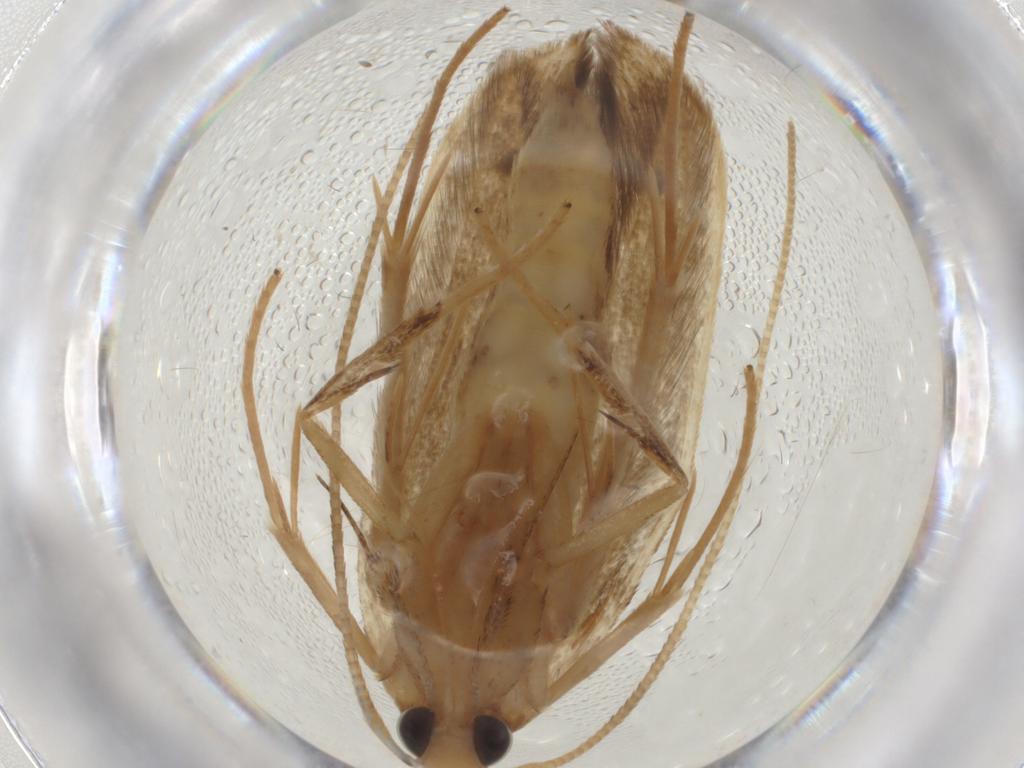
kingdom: Animalia
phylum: Arthropoda
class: Insecta
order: Lepidoptera
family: Coleophoridae
